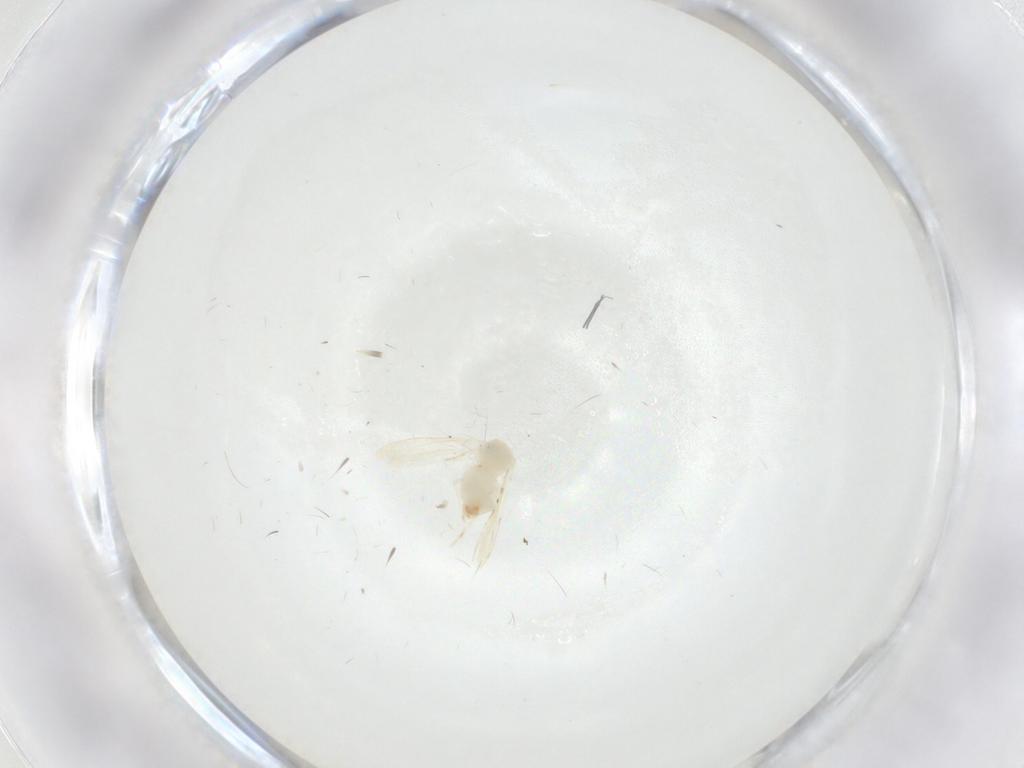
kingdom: Animalia
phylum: Arthropoda
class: Insecta
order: Hemiptera
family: Aleyrodidae
